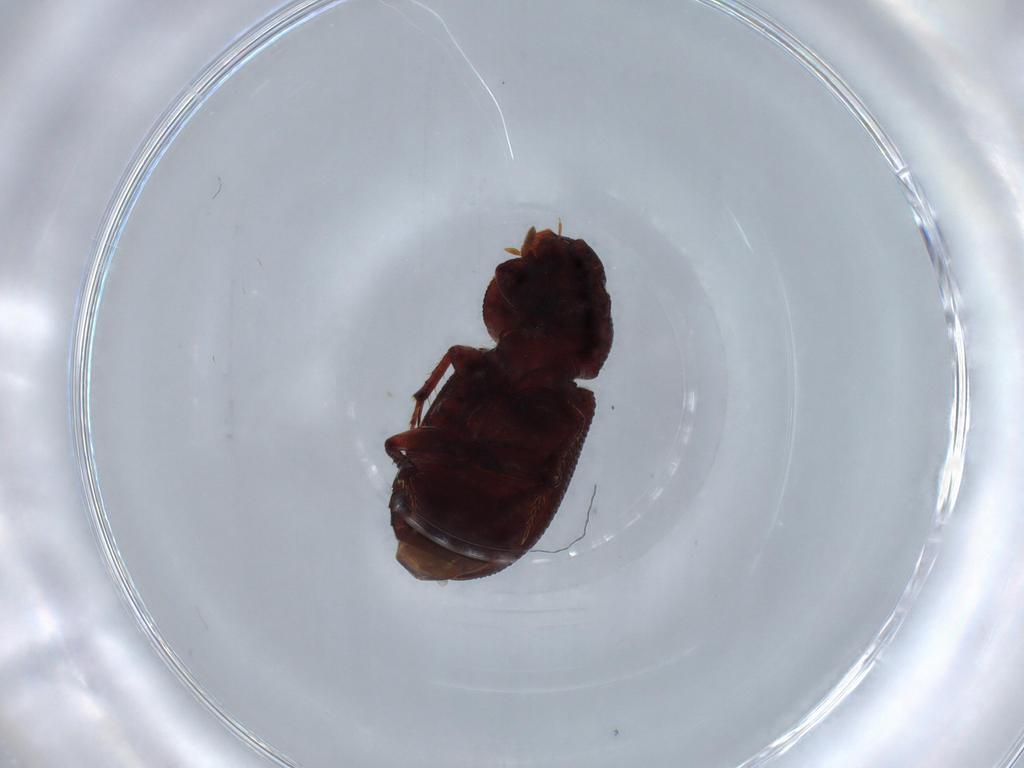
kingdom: Animalia
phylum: Arthropoda
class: Insecta
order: Coleoptera
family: Scarabaeidae
